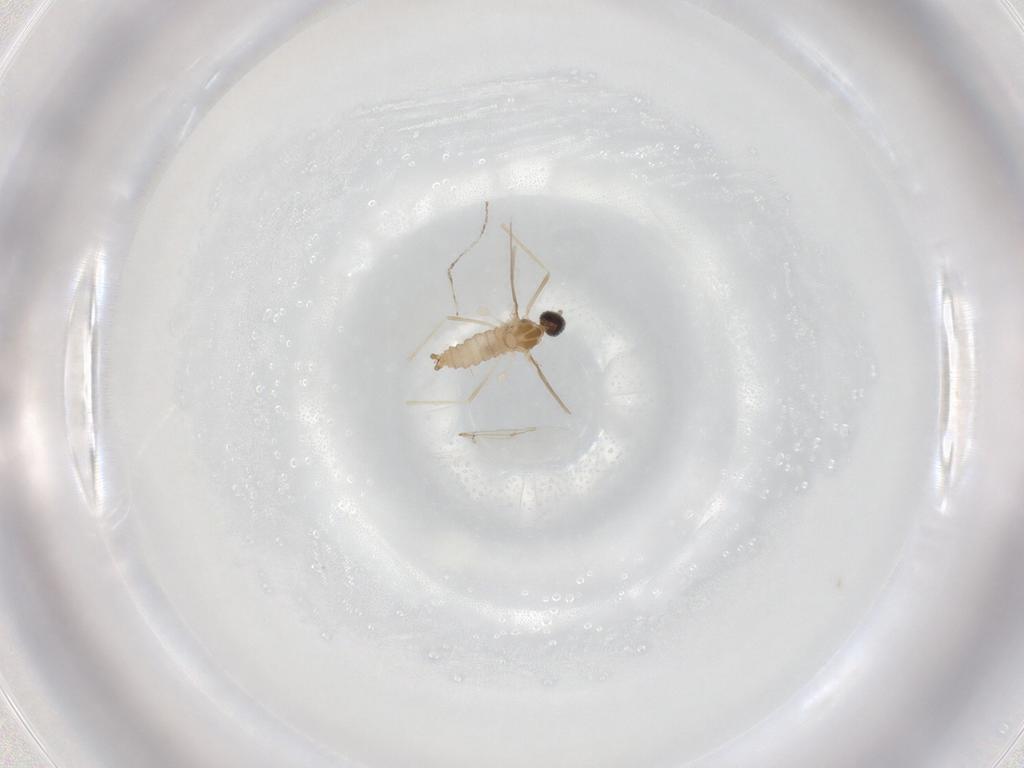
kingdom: Animalia
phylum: Arthropoda
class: Insecta
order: Diptera
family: Cecidomyiidae
